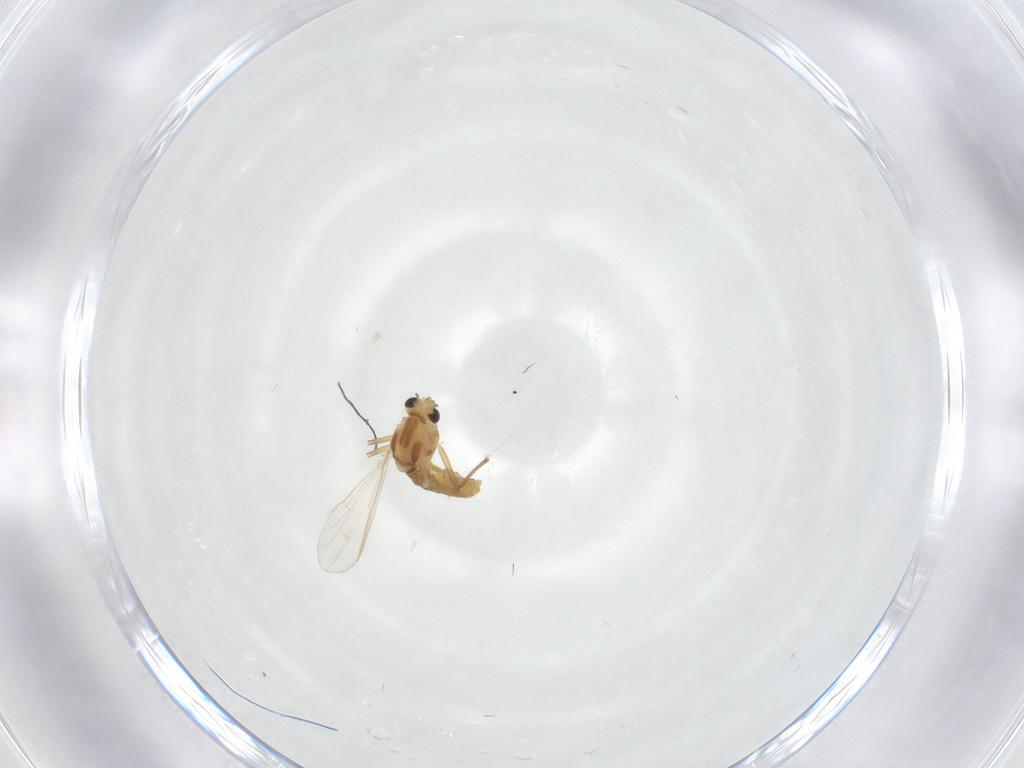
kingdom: Animalia
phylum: Arthropoda
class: Insecta
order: Diptera
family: Chironomidae
